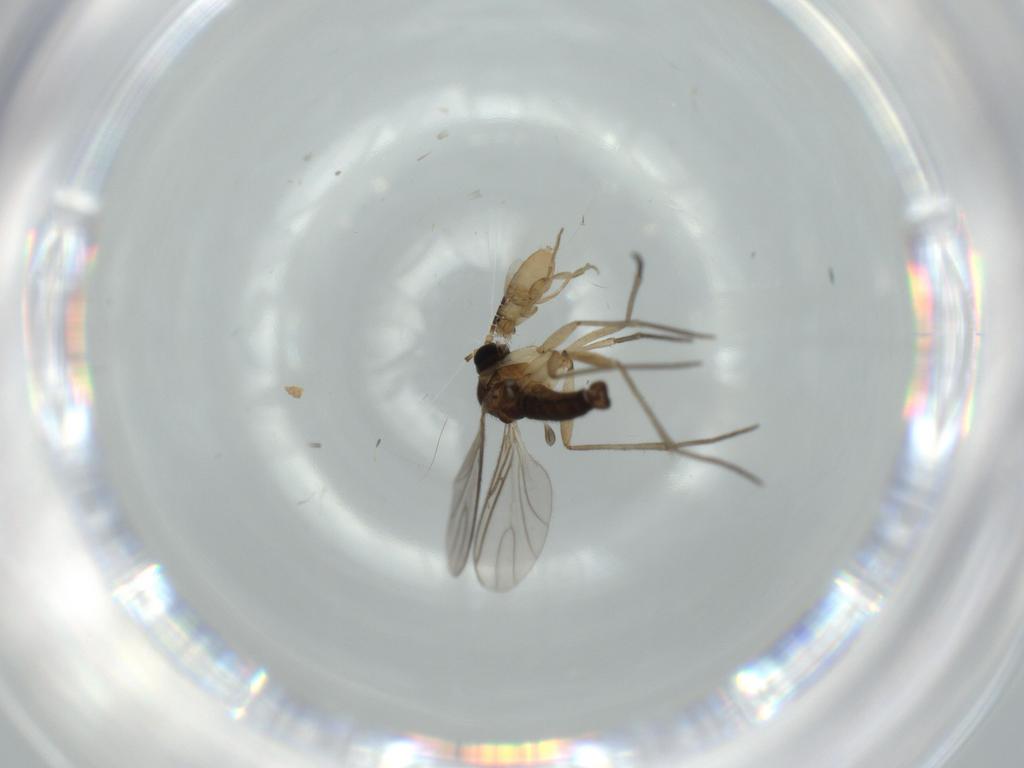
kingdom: Animalia
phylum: Arthropoda
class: Insecta
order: Diptera
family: Sciaridae
